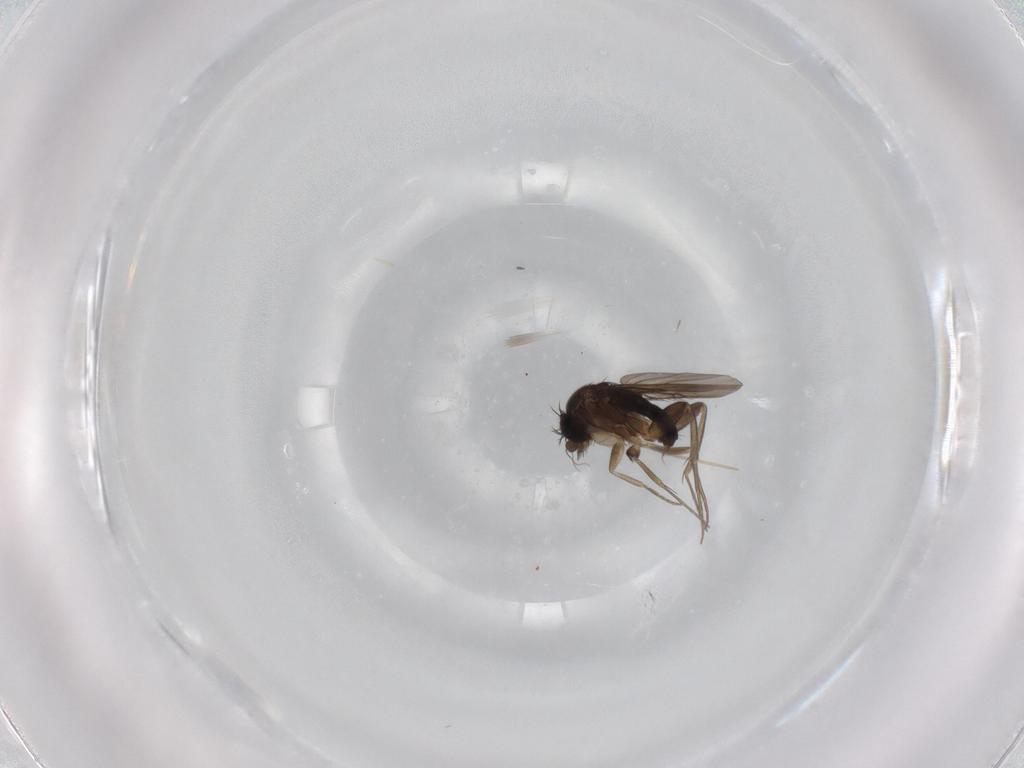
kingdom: Animalia
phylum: Arthropoda
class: Insecta
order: Diptera
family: Phoridae
